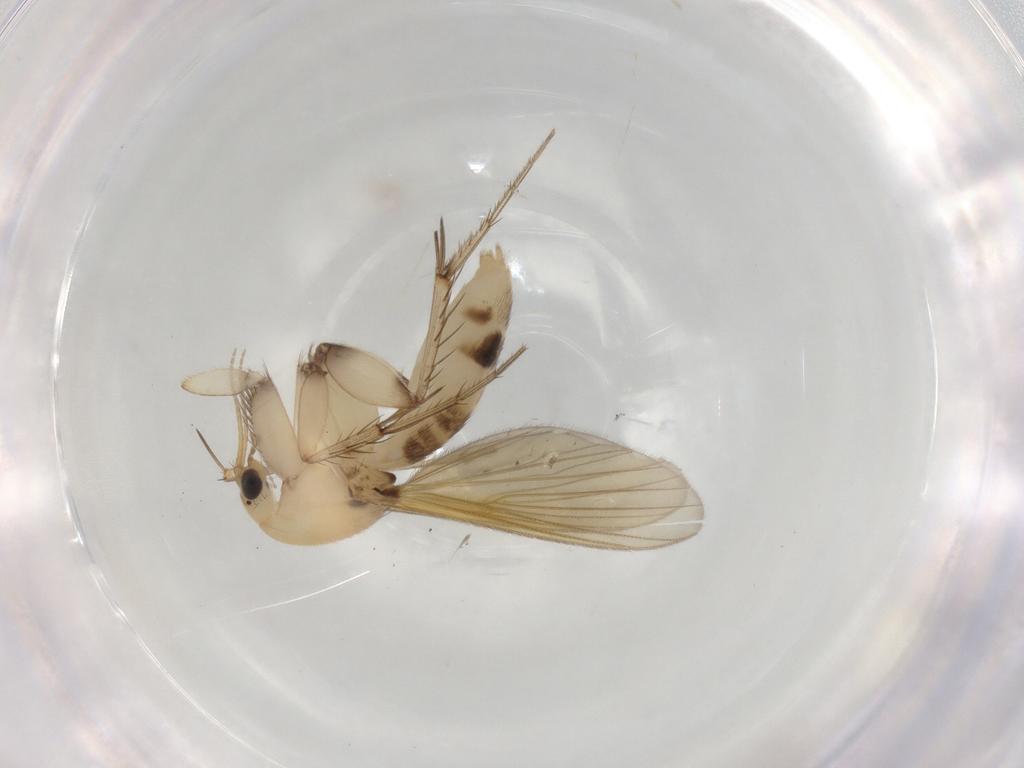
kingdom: Animalia
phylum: Arthropoda
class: Insecta
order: Diptera
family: Mycetophilidae
